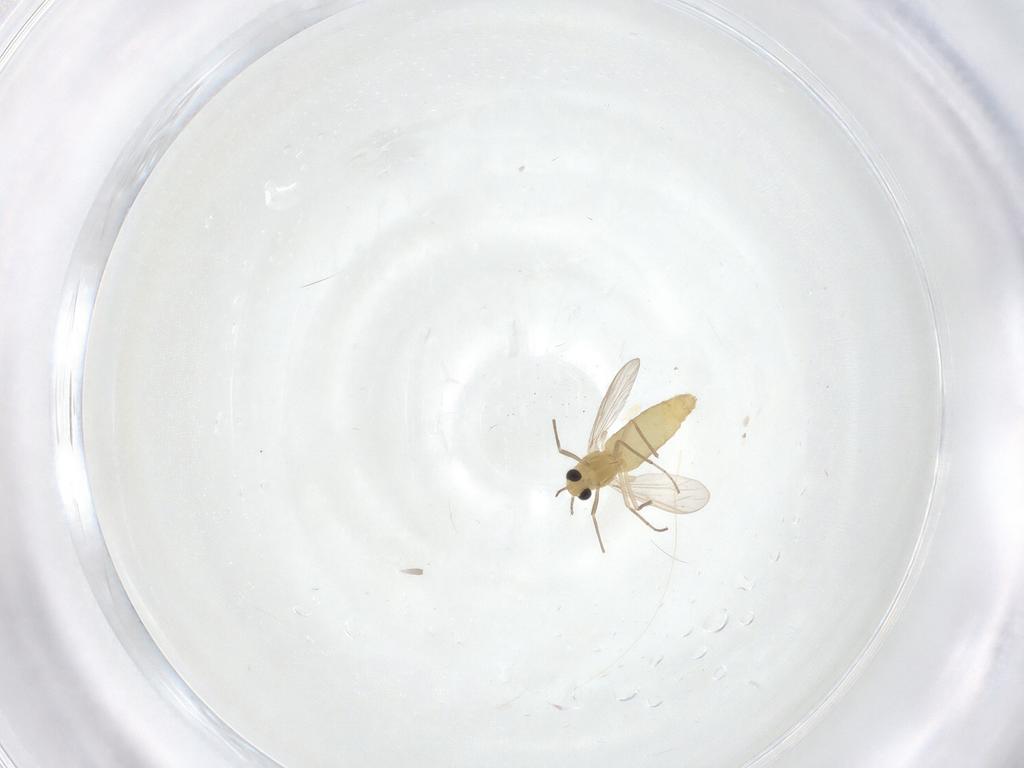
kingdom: Animalia
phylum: Arthropoda
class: Insecta
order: Diptera
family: Chironomidae
